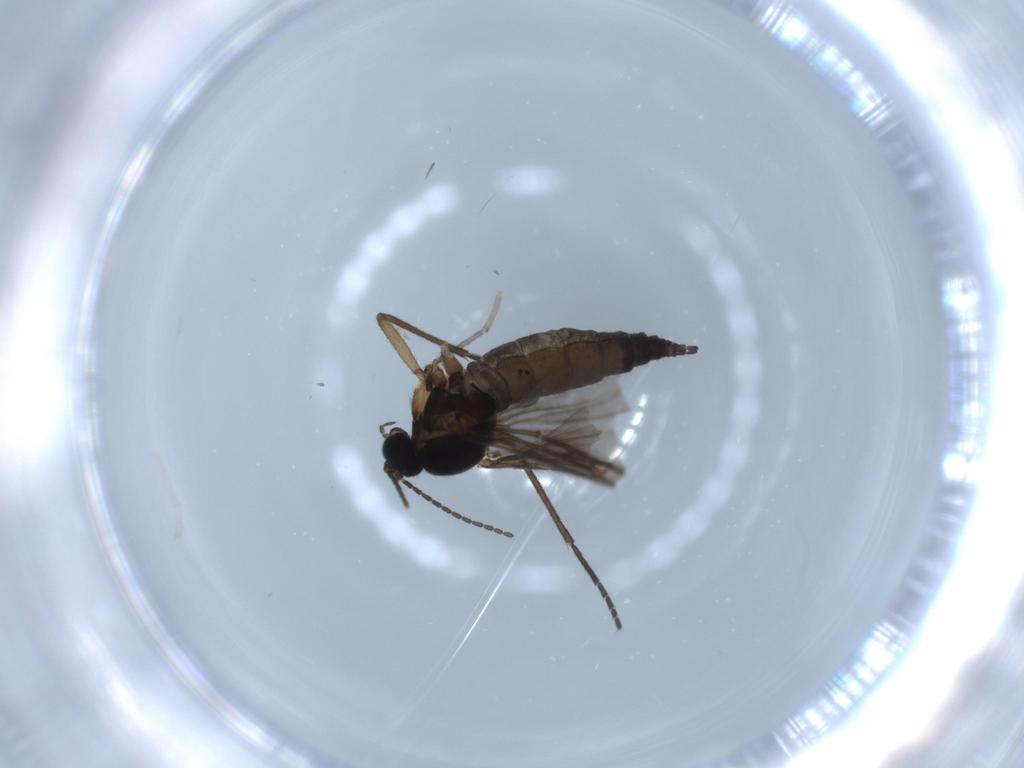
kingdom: Animalia
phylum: Arthropoda
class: Insecta
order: Diptera
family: Sciaridae
